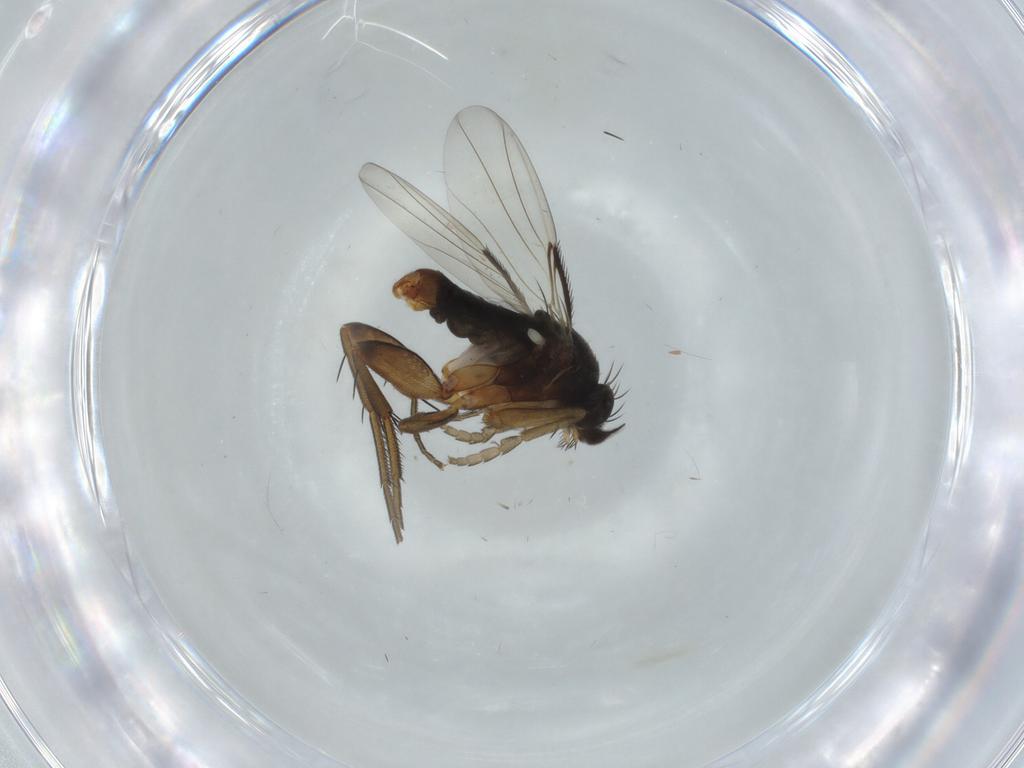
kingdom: Animalia
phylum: Arthropoda
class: Insecta
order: Diptera
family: Phoridae
